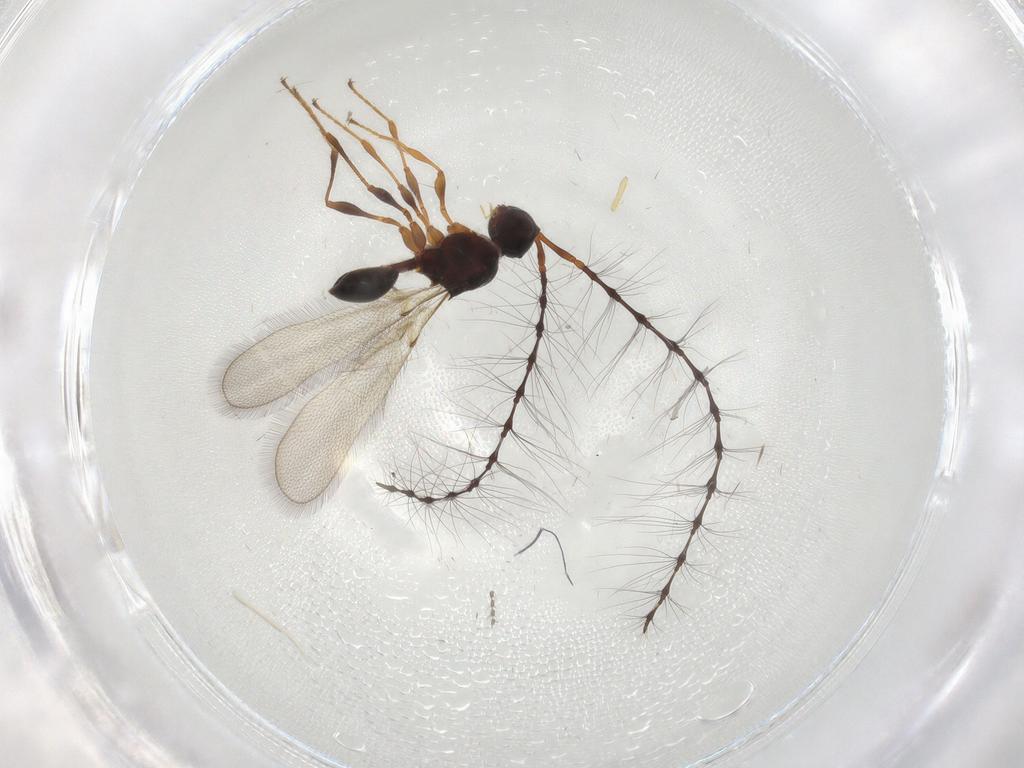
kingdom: Animalia
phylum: Arthropoda
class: Insecta
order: Hymenoptera
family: Diapriidae
